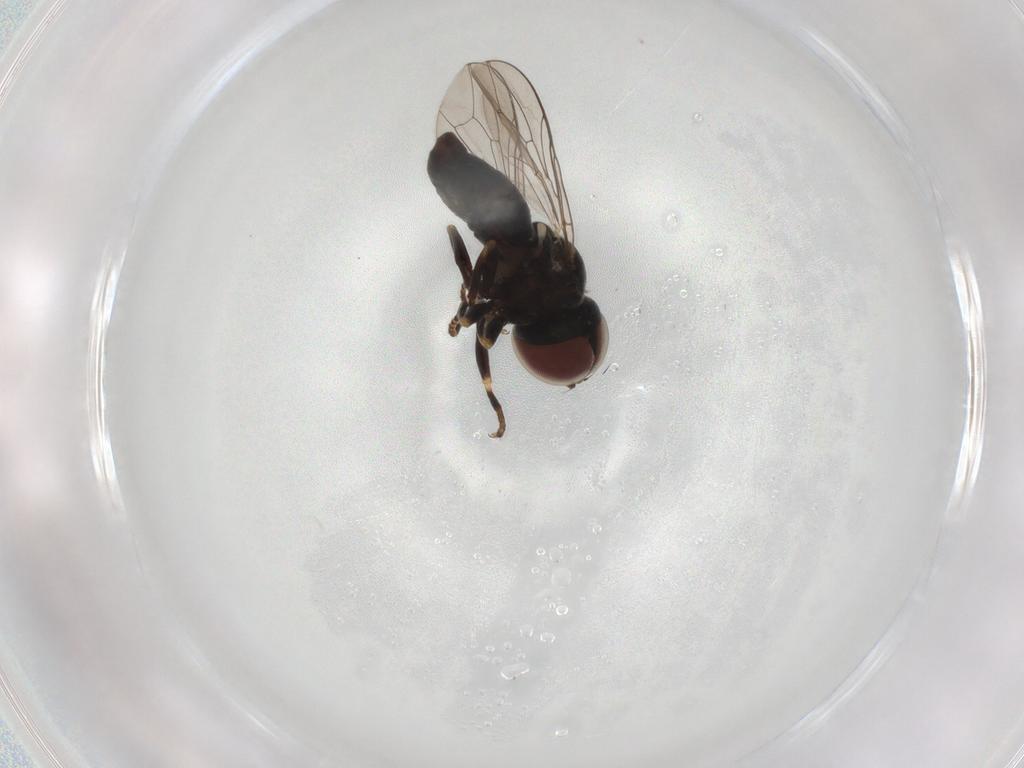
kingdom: Animalia
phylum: Arthropoda
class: Insecta
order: Diptera
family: Pipunculidae
